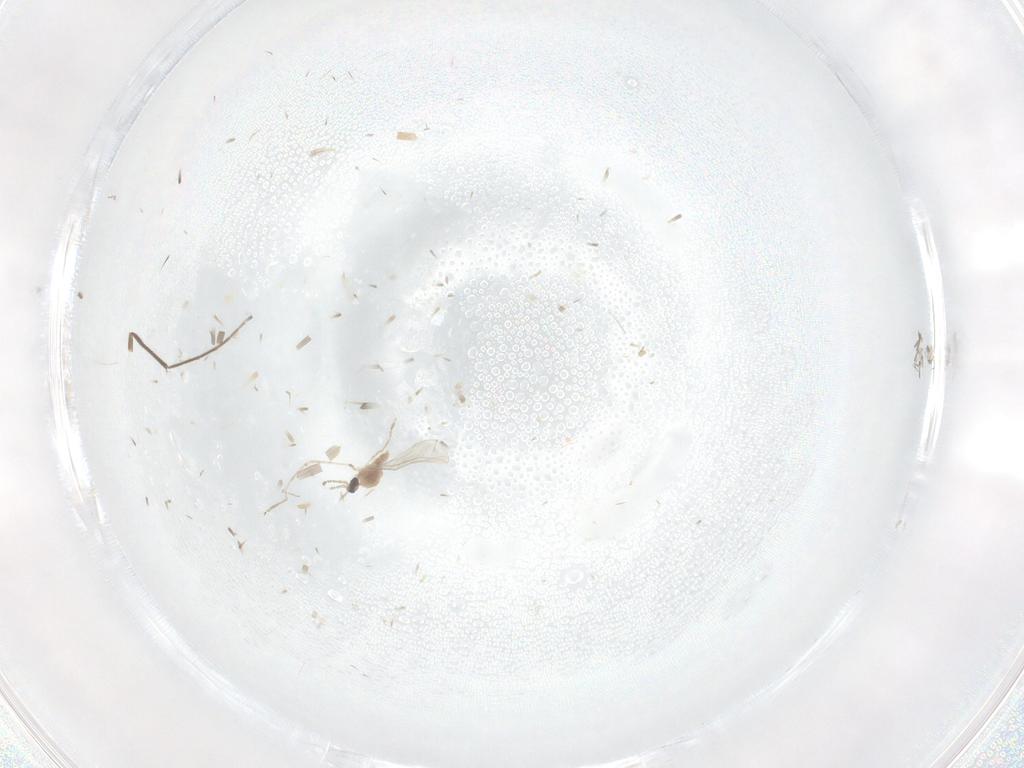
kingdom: Animalia
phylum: Arthropoda
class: Insecta
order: Diptera
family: Chironomidae
